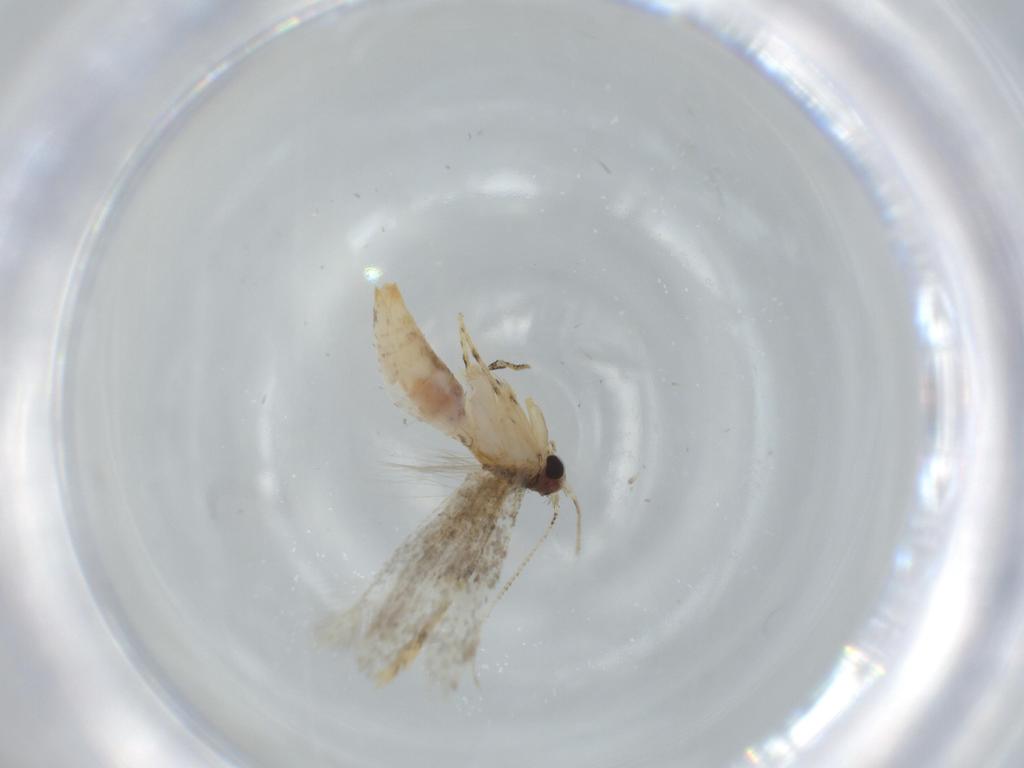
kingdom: Animalia
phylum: Arthropoda
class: Insecta
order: Lepidoptera
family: Tineidae
